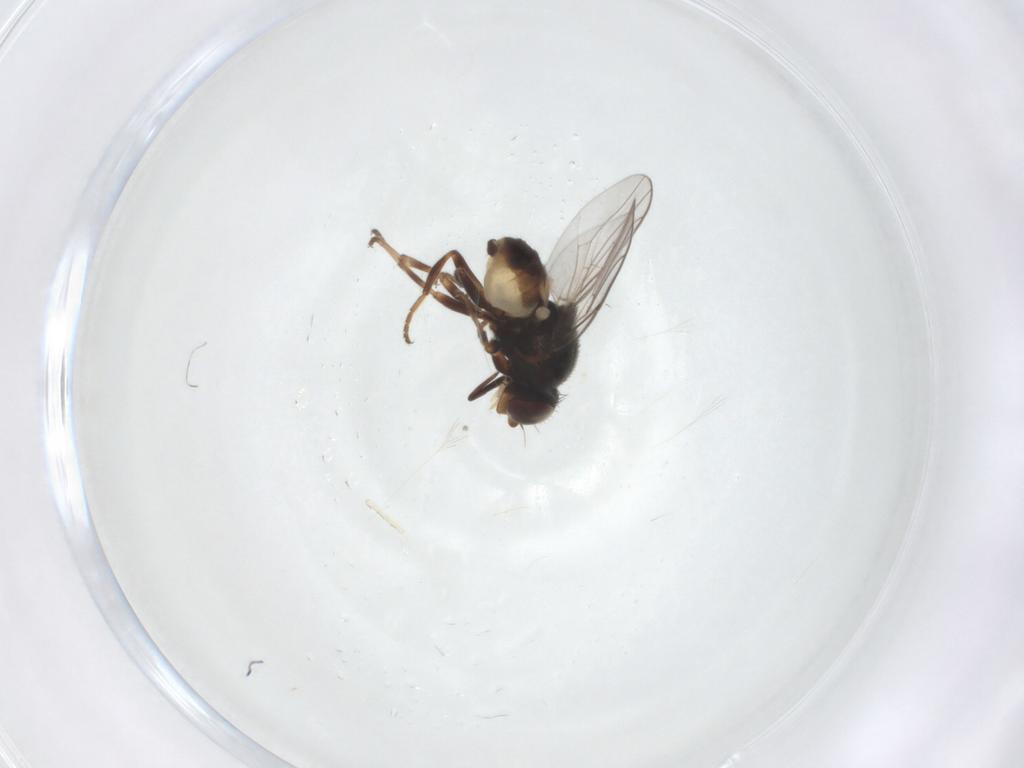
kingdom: Animalia
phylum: Arthropoda
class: Insecta
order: Diptera
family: Chloropidae
